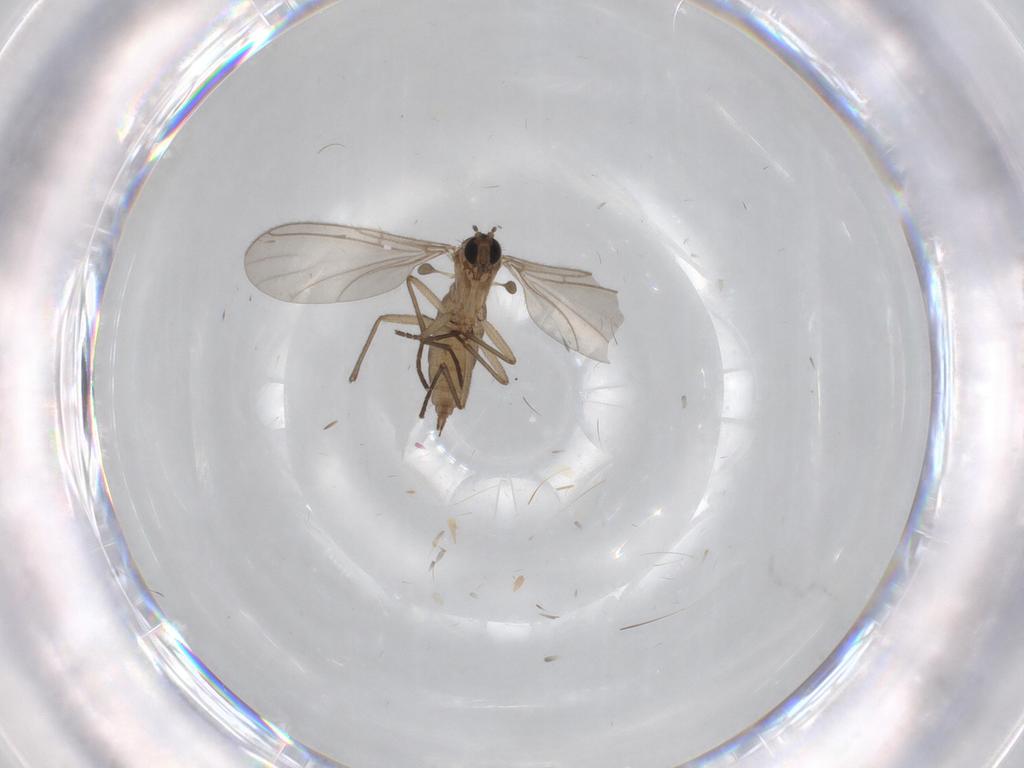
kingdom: Animalia
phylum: Arthropoda
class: Insecta
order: Diptera
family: Sciaridae
